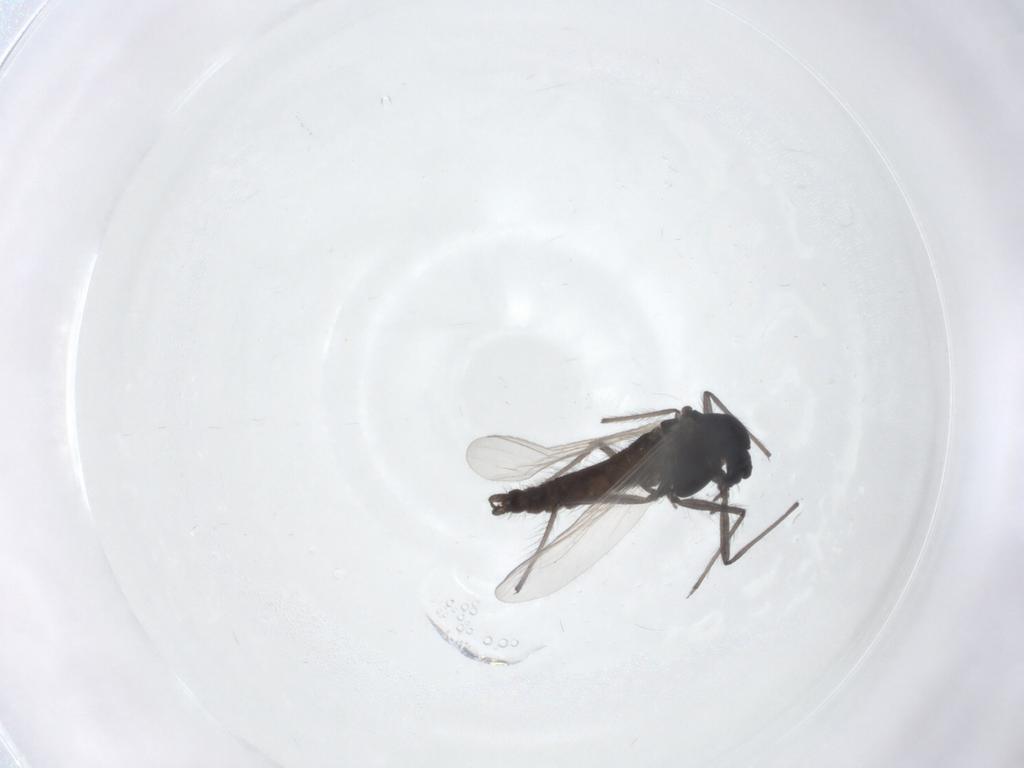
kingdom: Animalia
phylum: Arthropoda
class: Insecta
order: Diptera
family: Chironomidae
